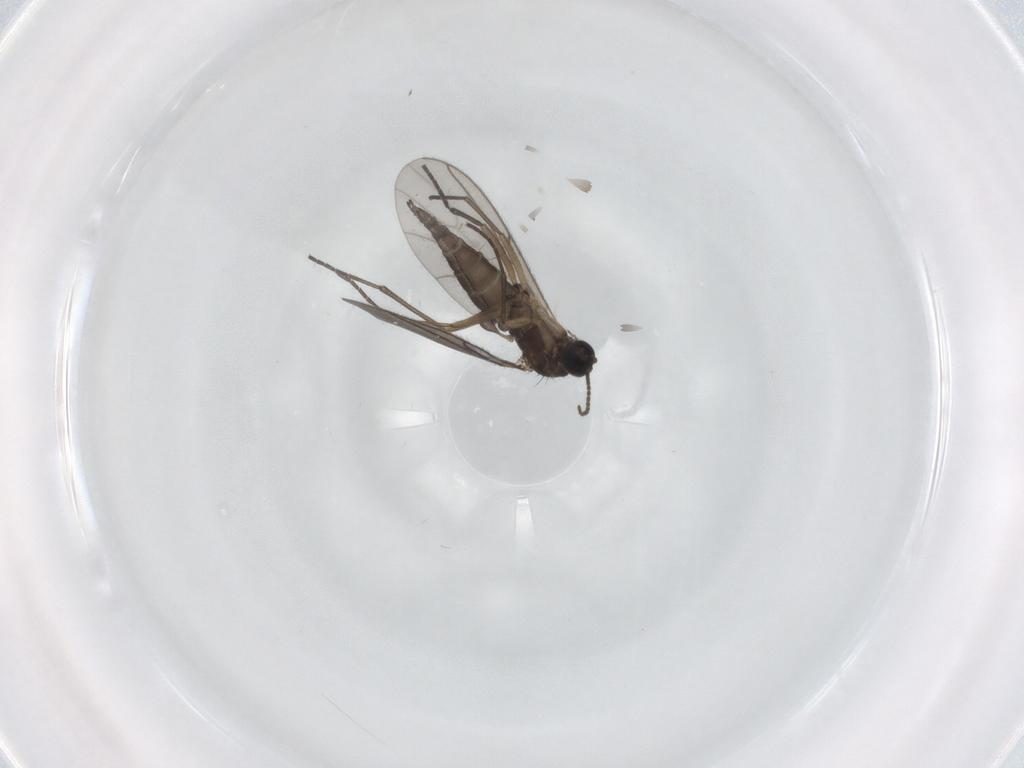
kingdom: Animalia
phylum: Arthropoda
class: Insecta
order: Diptera
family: Sciaridae
